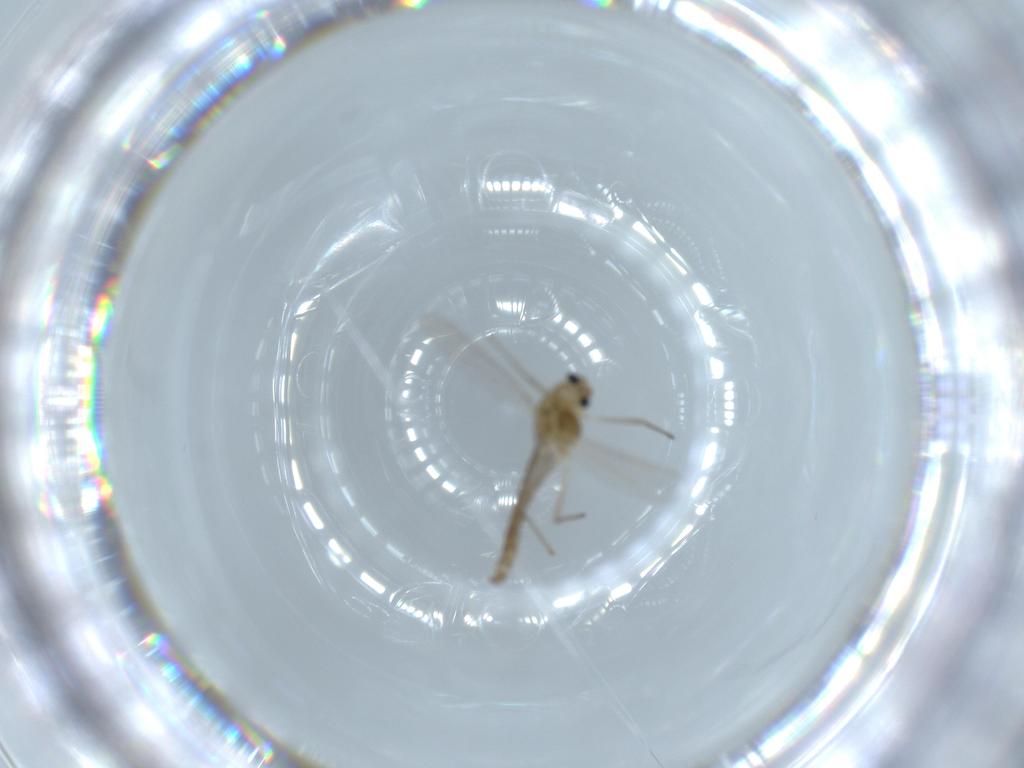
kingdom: Animalia
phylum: Arthropoda
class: Insecta
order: Diptera
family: Chironomidae
